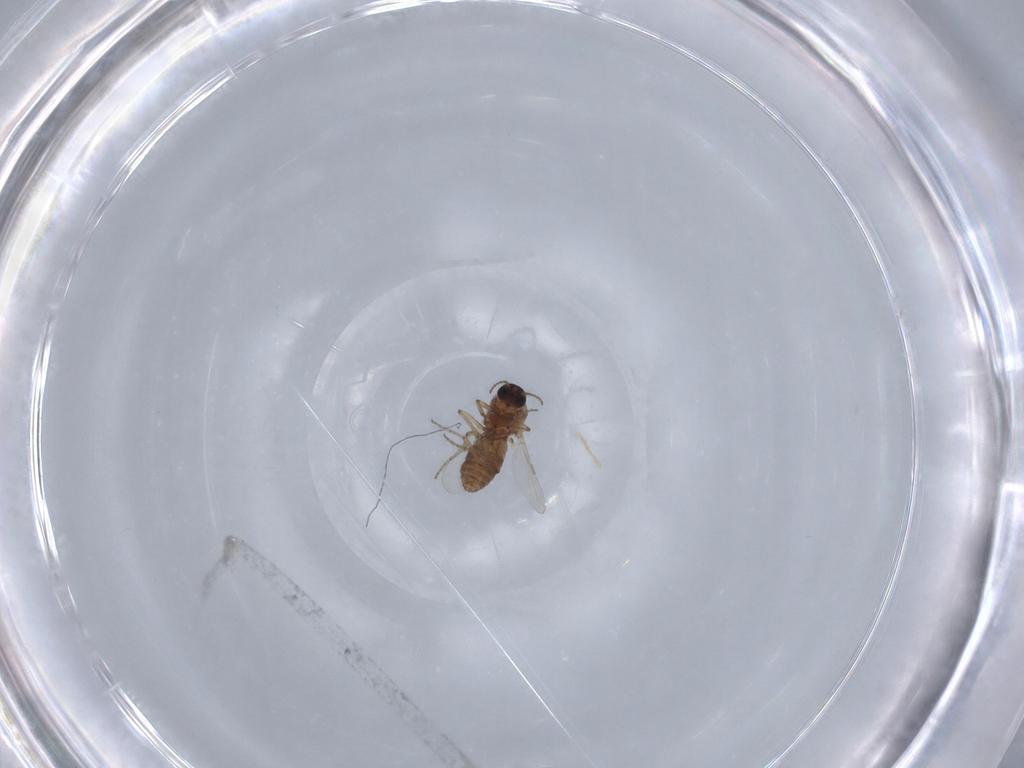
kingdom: Animalia
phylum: Arthropoda
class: Insecta
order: Diptera
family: Ceratopogonidae
